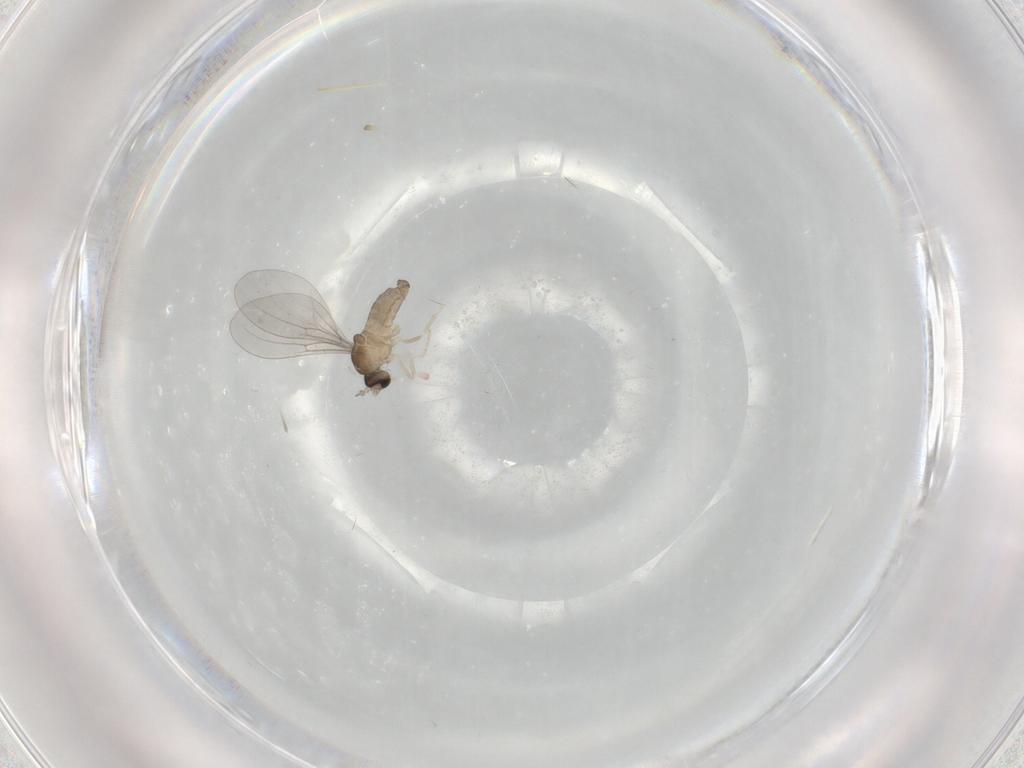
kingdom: Animalia
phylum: Arthropoda
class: Insecta
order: Diptera
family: Cecidomyiidae
